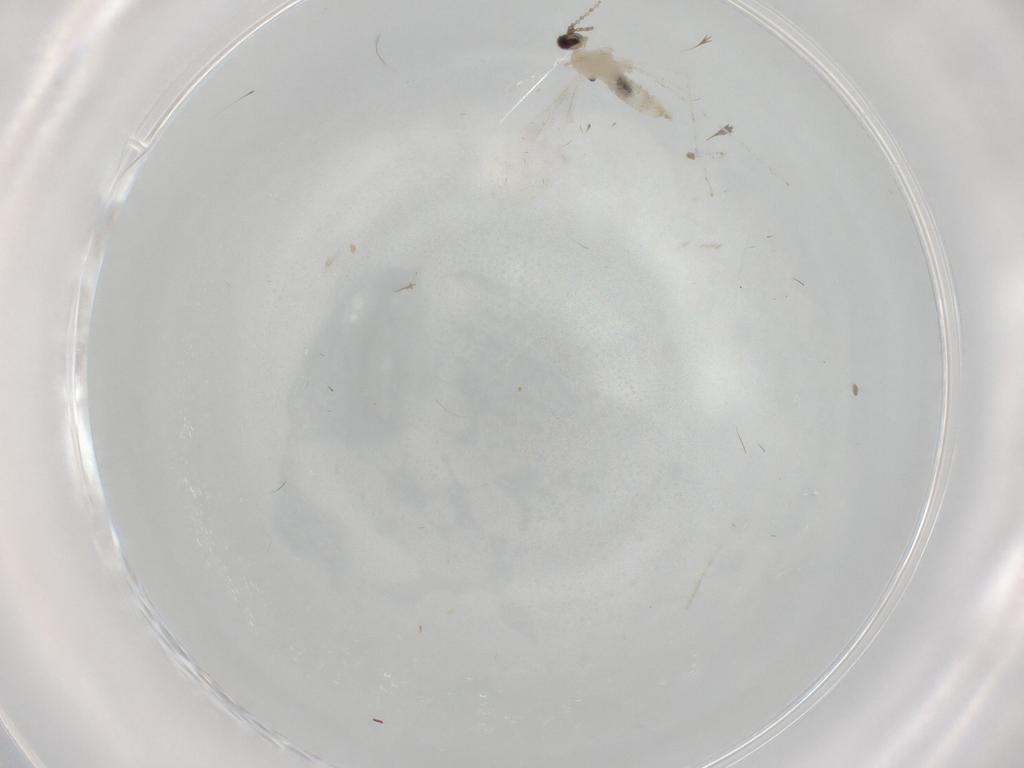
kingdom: Animalia
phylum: Arthropoda
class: Insecta
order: Diptera
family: Cecidomyiidae
